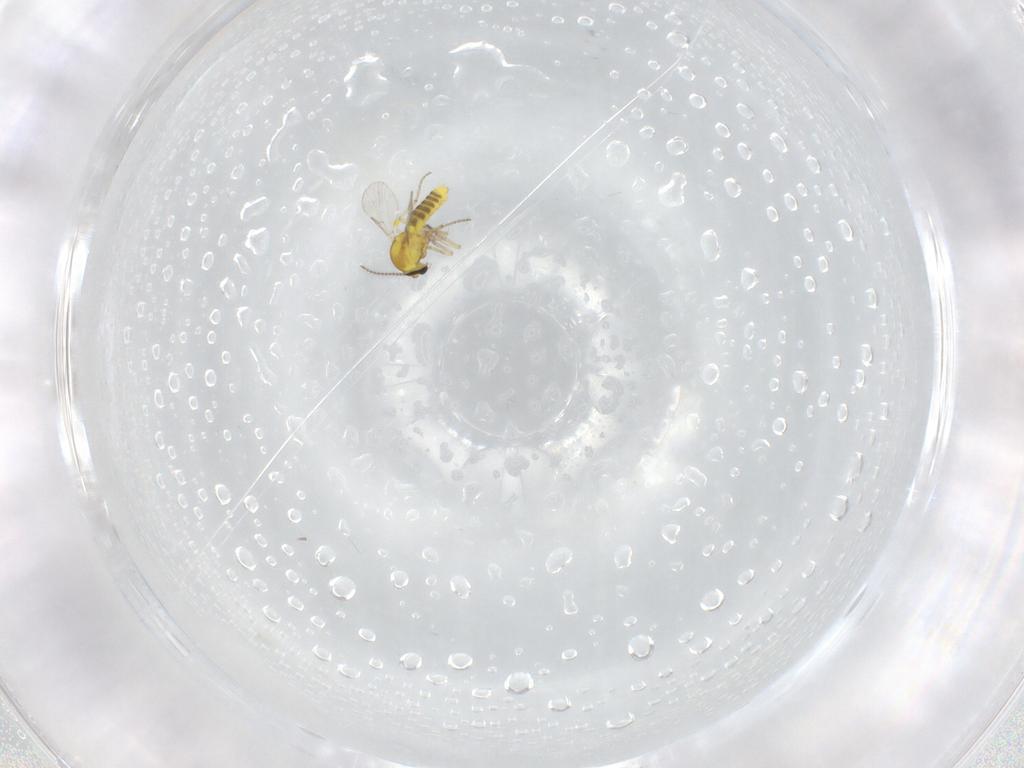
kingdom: Animalia
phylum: Arthropoda
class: Insecta
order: Diptera
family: Ceratopogonidae
